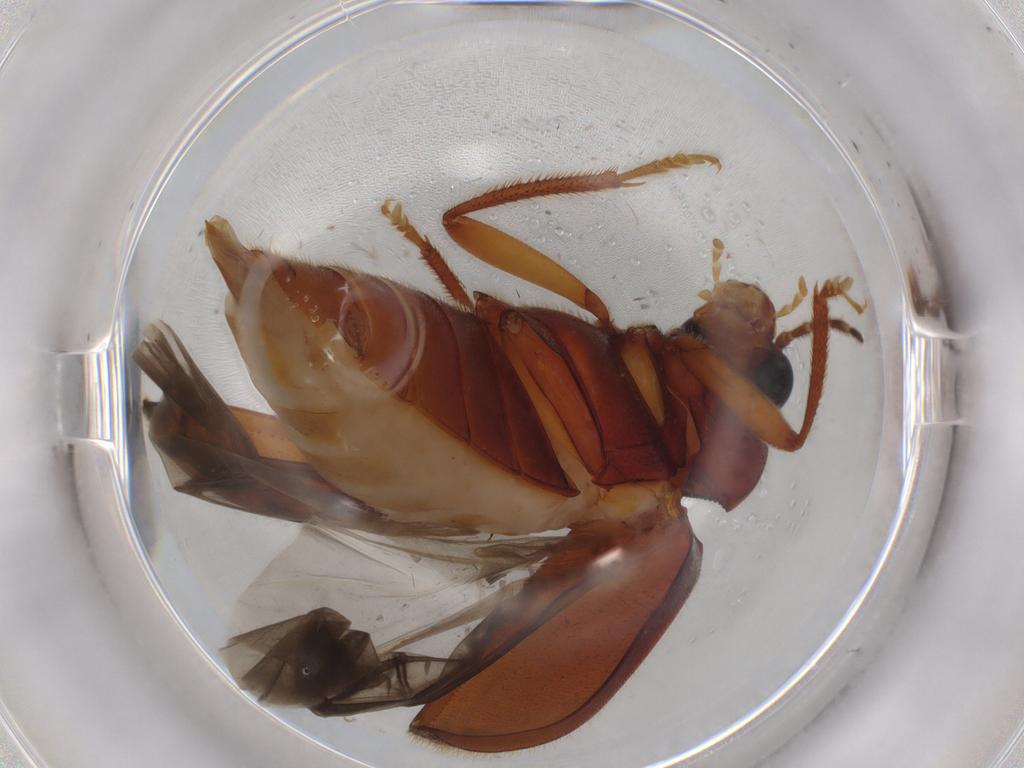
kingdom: Animalia
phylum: Arthropoda
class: Insecta
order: Coleoptera
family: Ptilodactylidae
